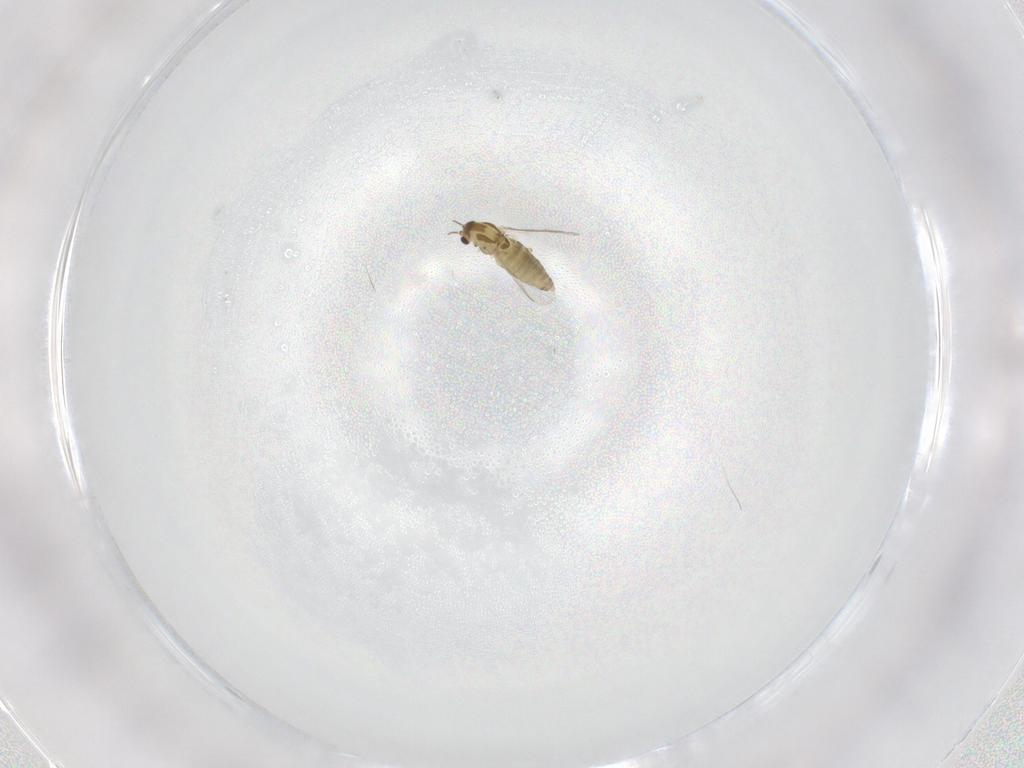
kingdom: Animalia
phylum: Arthropoda
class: Insecta
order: Diptera
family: Chironomidae
